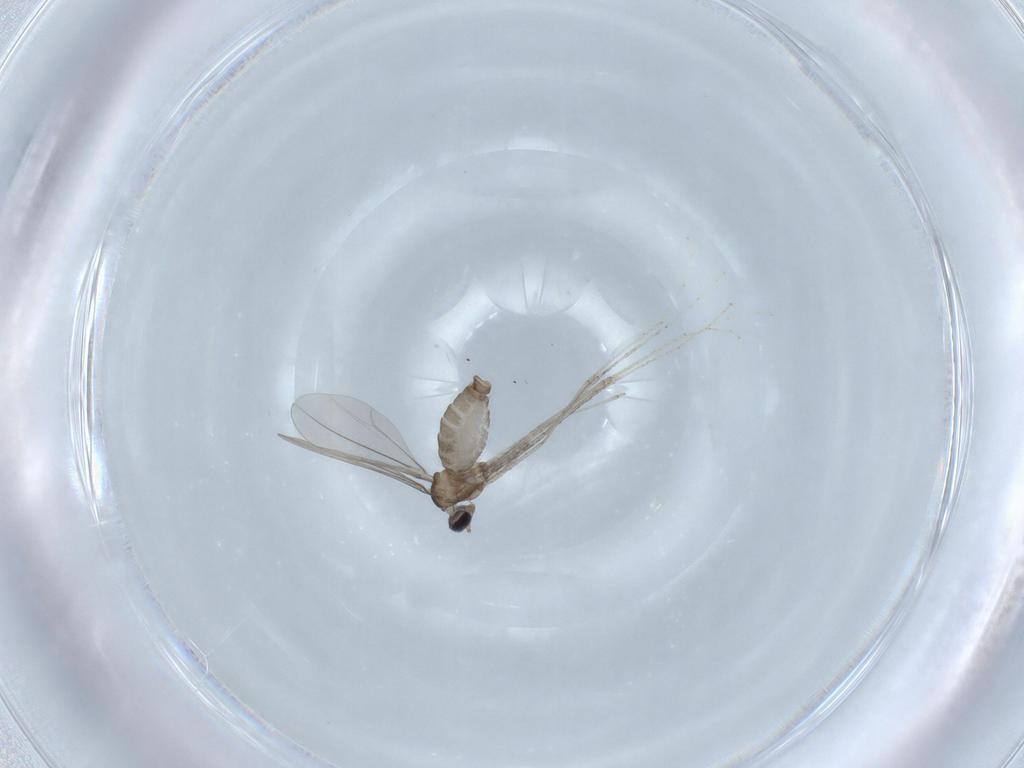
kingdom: Animalia
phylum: Arthropoda
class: Insecta
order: Diptera
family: Cecidomyiidae
